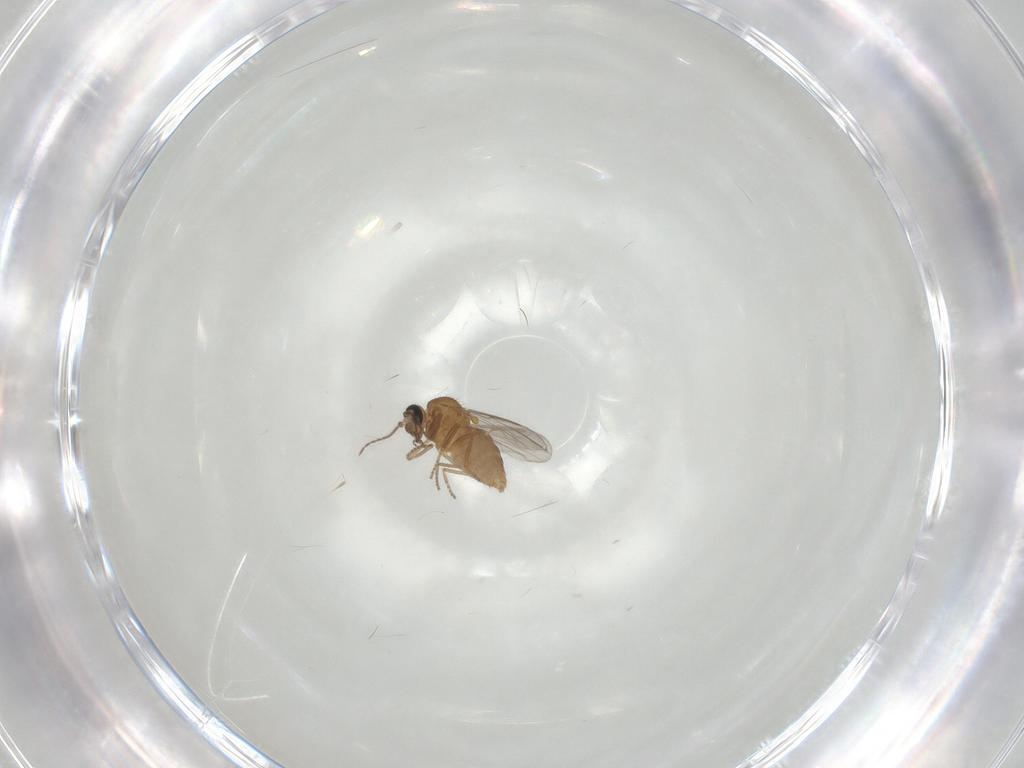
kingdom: Animalia
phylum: Arthropoda
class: Insecta
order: Diptera
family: Ceratopogonidae
